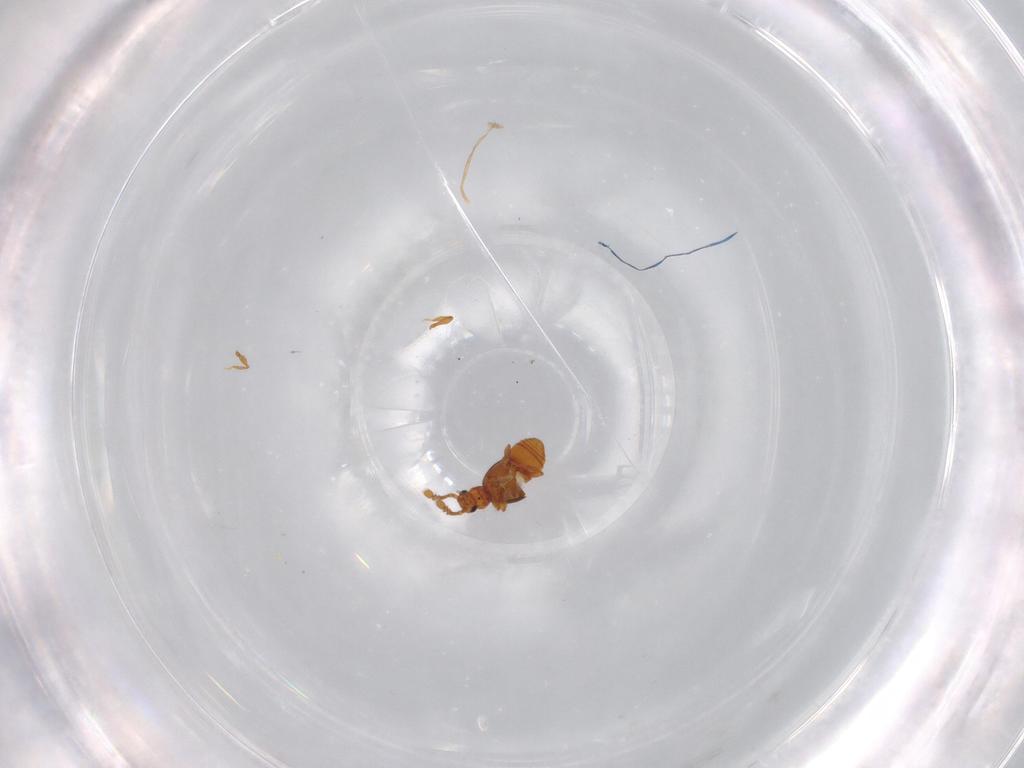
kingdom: Animalia
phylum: Arthropoda
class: Insecta
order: Coleoptera
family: Staphylinidae
